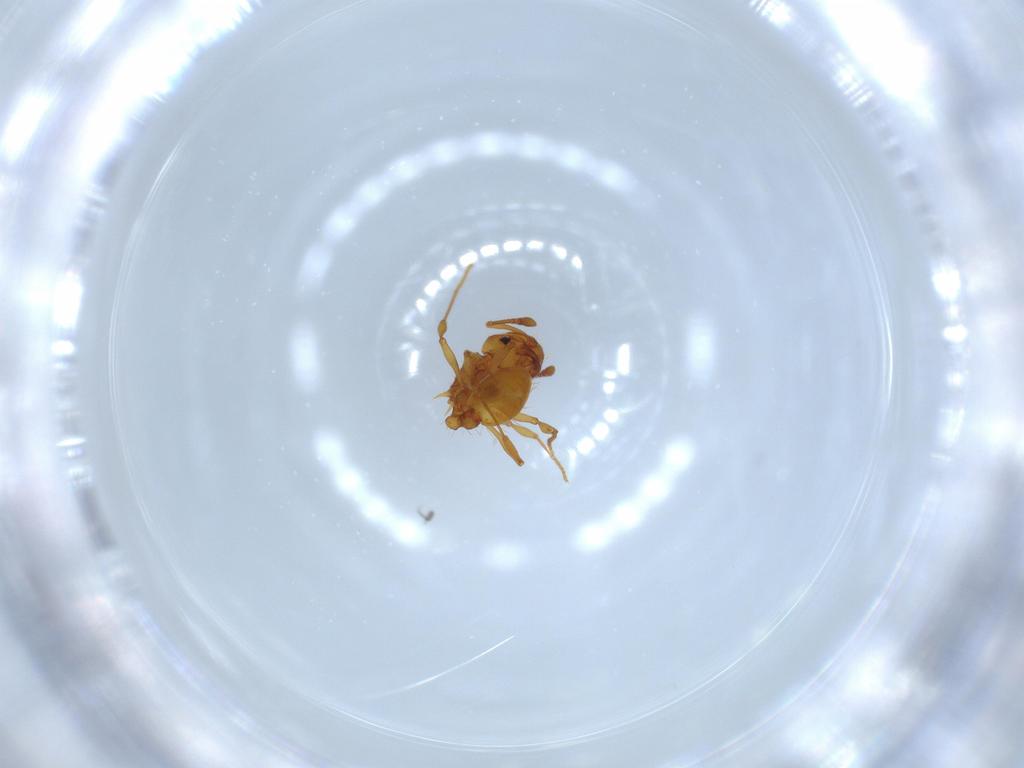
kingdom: Animalia
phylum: Arthropoda
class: Insecta
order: Hymenoptera
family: Formicidae
